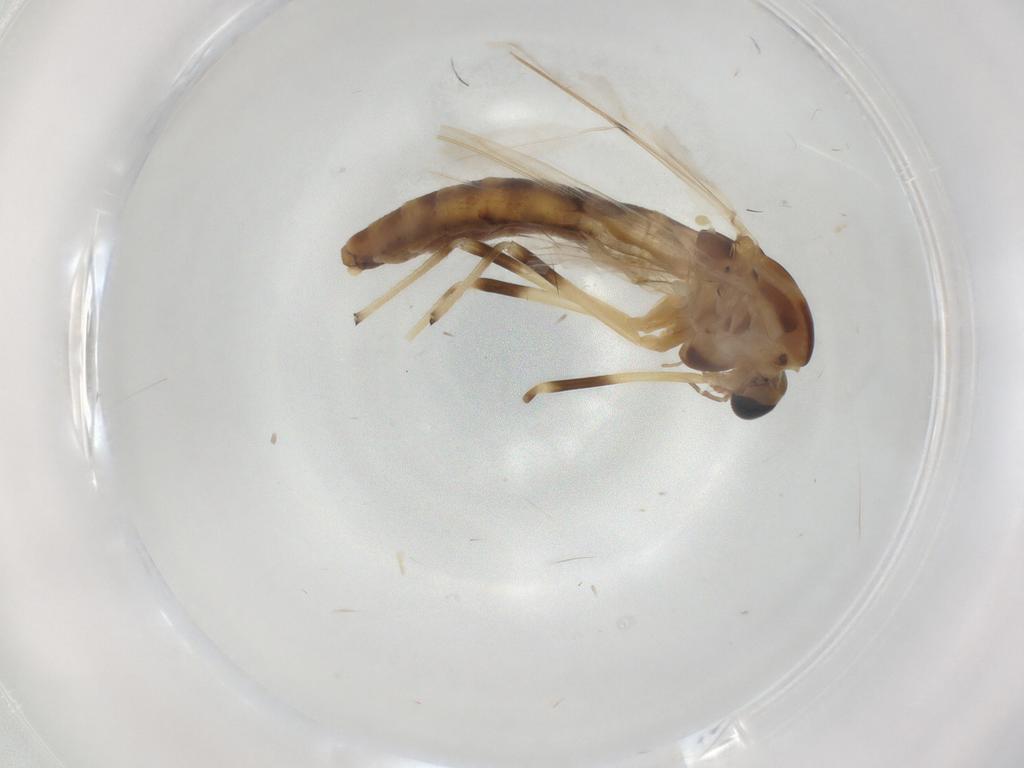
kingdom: Animalia
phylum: Arthropoda
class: Insecta
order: Diptera
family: Chironomidae
